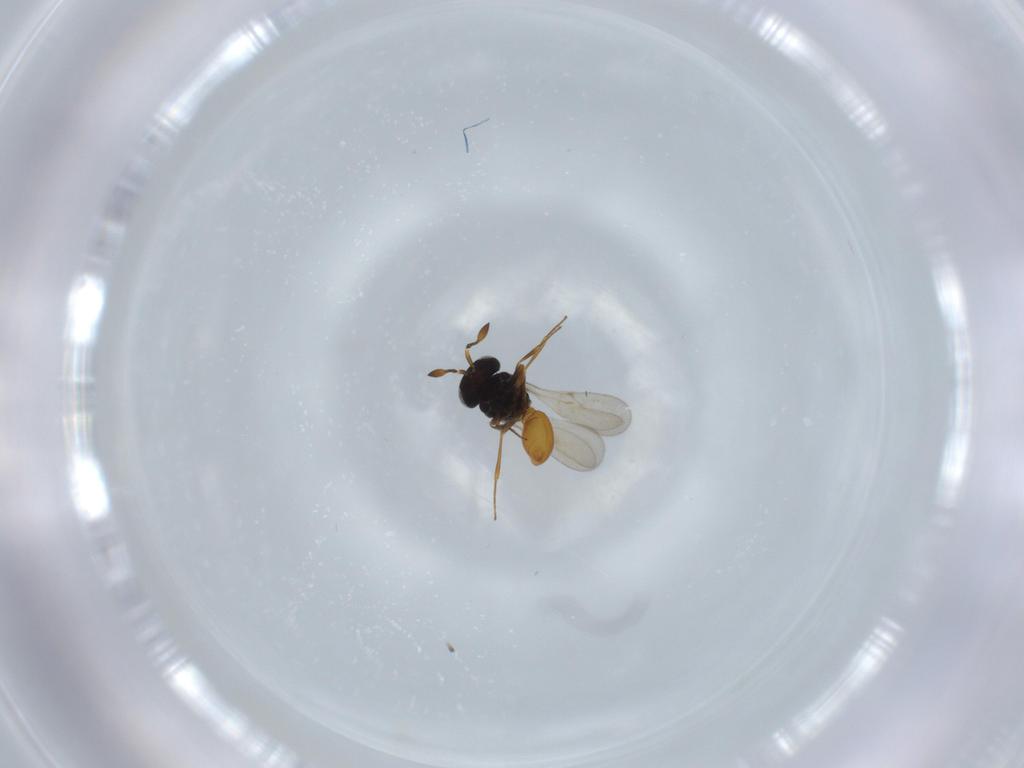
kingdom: Animalia
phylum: Arthropoda
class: Insecta
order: Hymenoptera
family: Scelionidae
